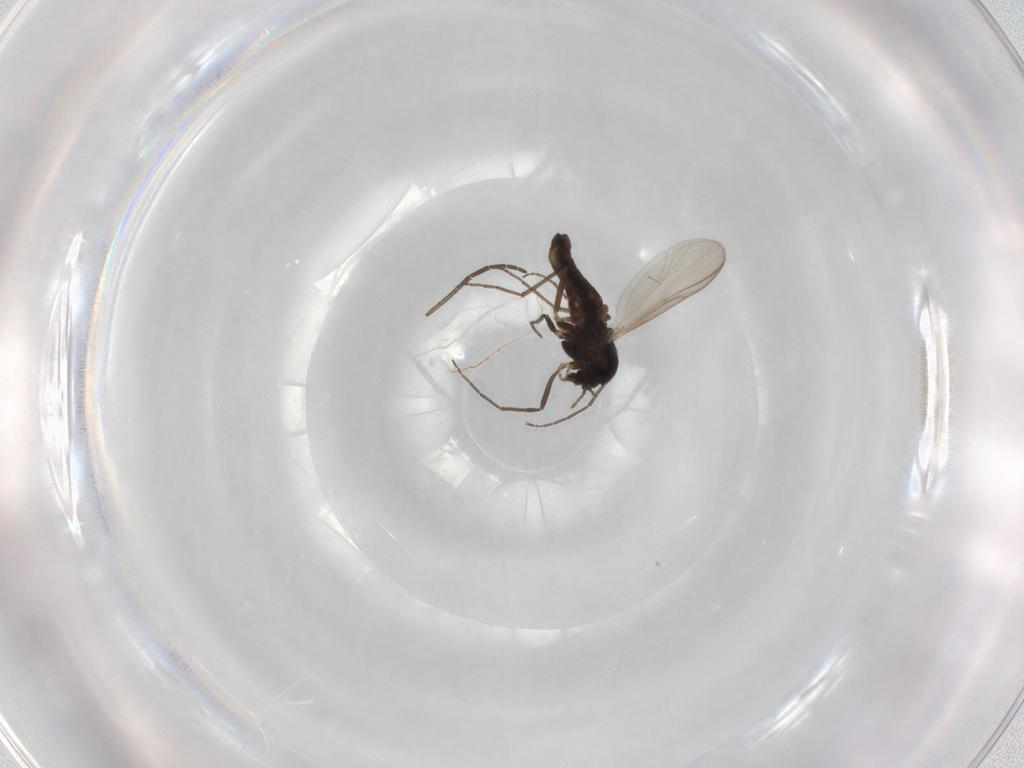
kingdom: Animalia
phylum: Arthropoda
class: Insecta
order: Diptera
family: Chironomidae
